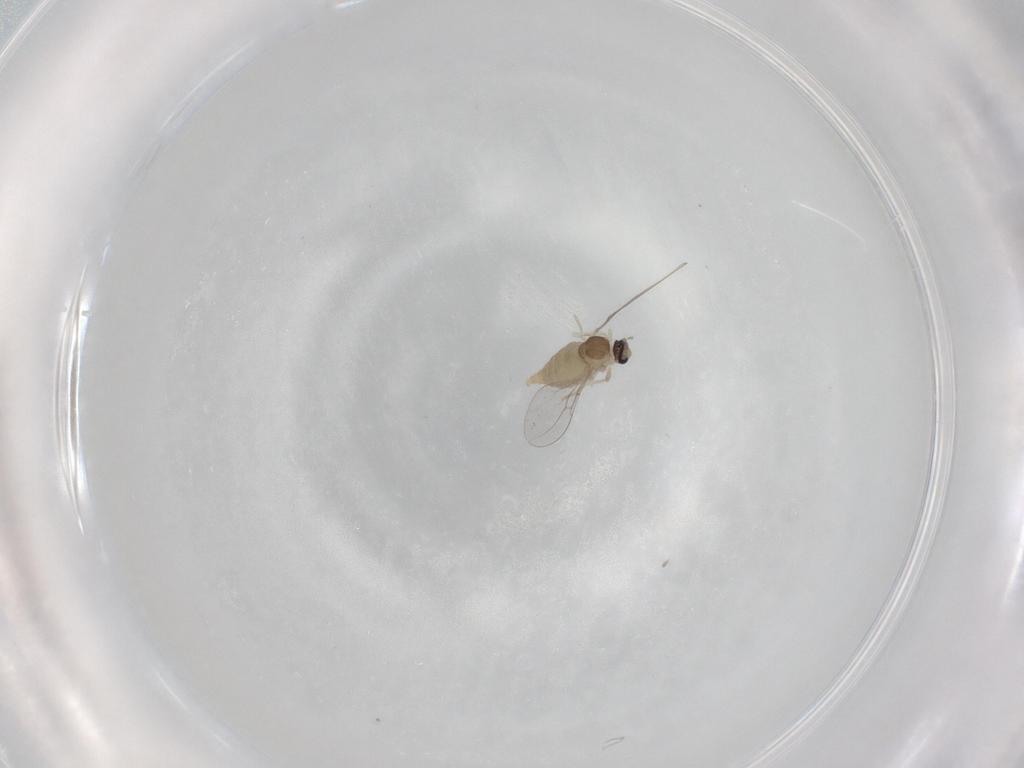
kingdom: Animalia
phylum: Arthropoda
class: Insecta
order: Diptera
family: Cecidomyiidae
